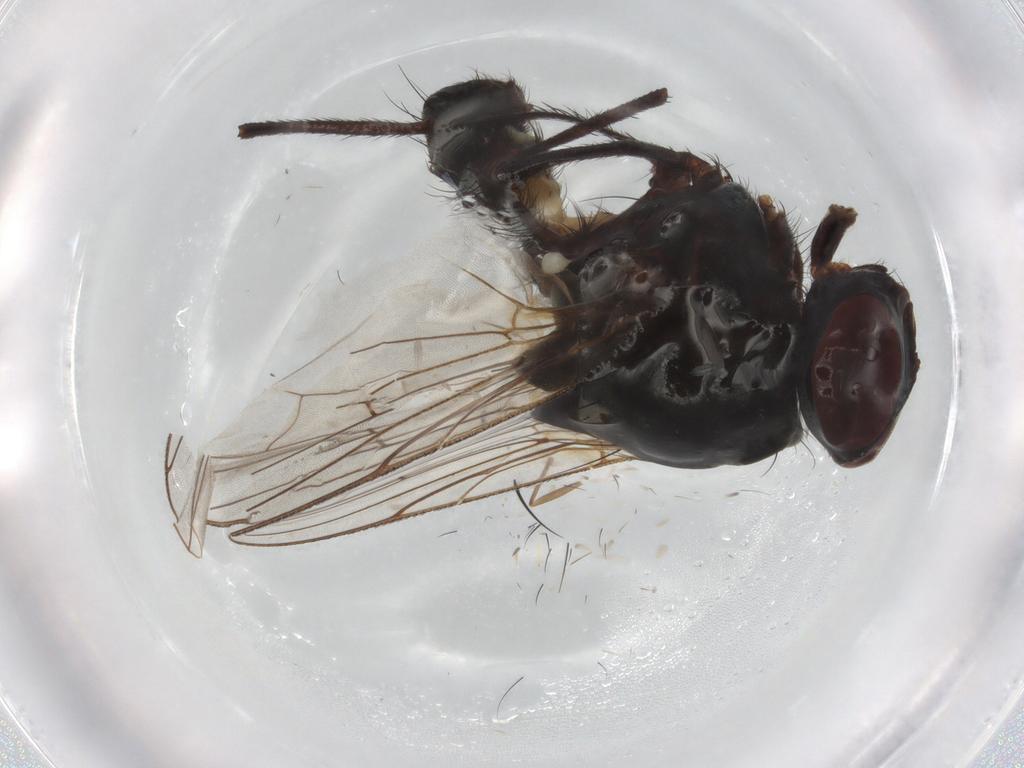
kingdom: Animalia
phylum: Arthropoda
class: Insecta
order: Diptera
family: Anthomyiidae
